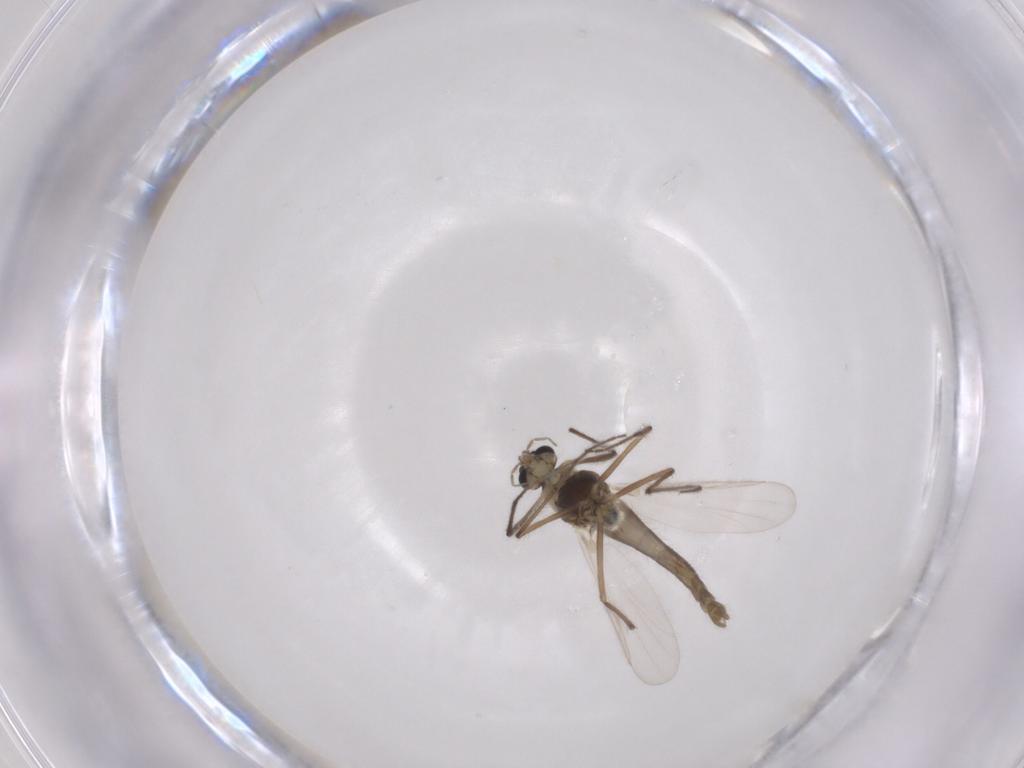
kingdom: Animalia
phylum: Arthropoda
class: Insecta
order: Diptera
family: Chironomidae
